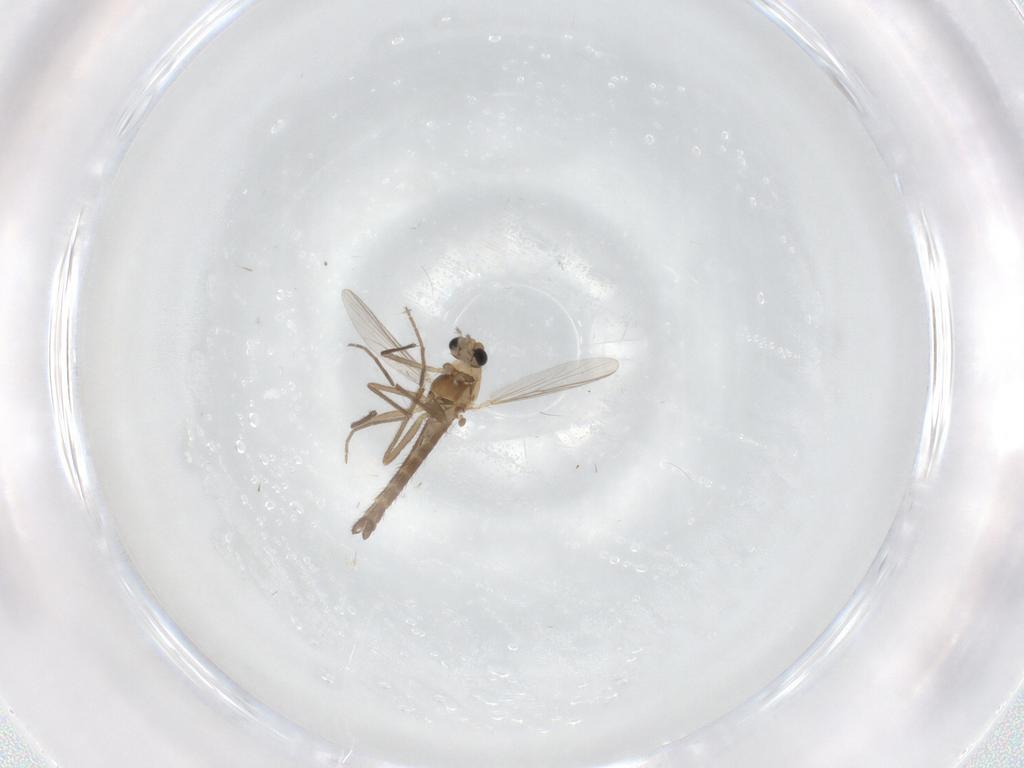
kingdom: Animalia
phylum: Arthropoda
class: Insecta
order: Diptera
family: Chironomidae
